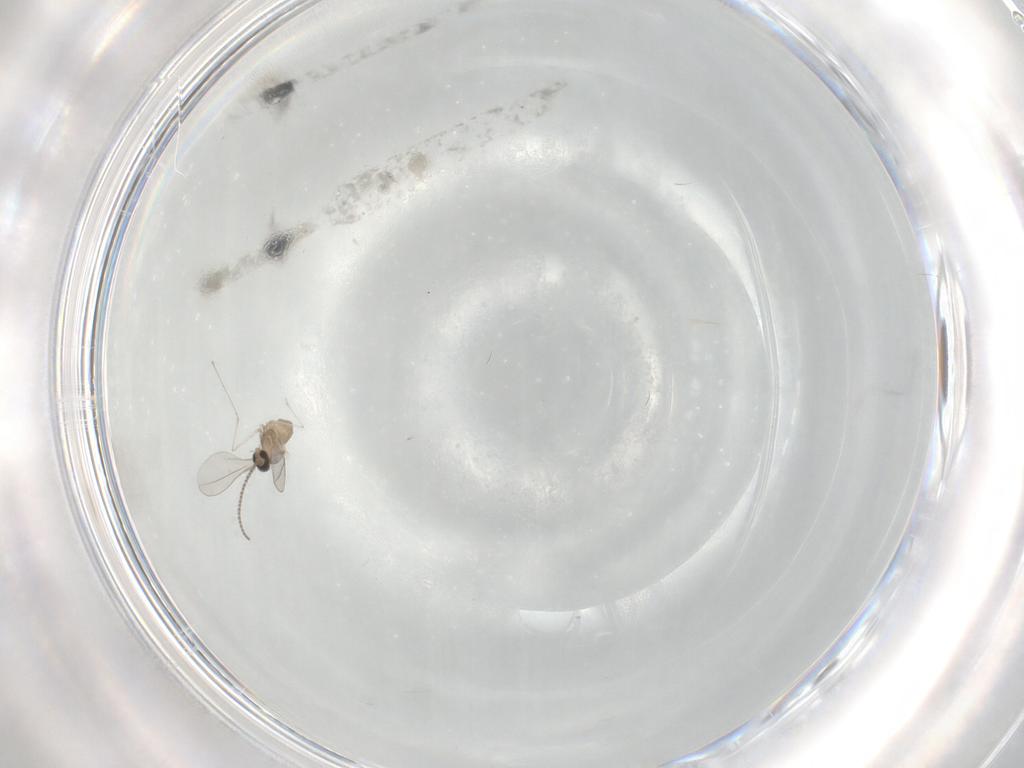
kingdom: Animalia
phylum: Arthropoda
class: Insecta
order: Diptera
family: Cecidomyiidae
